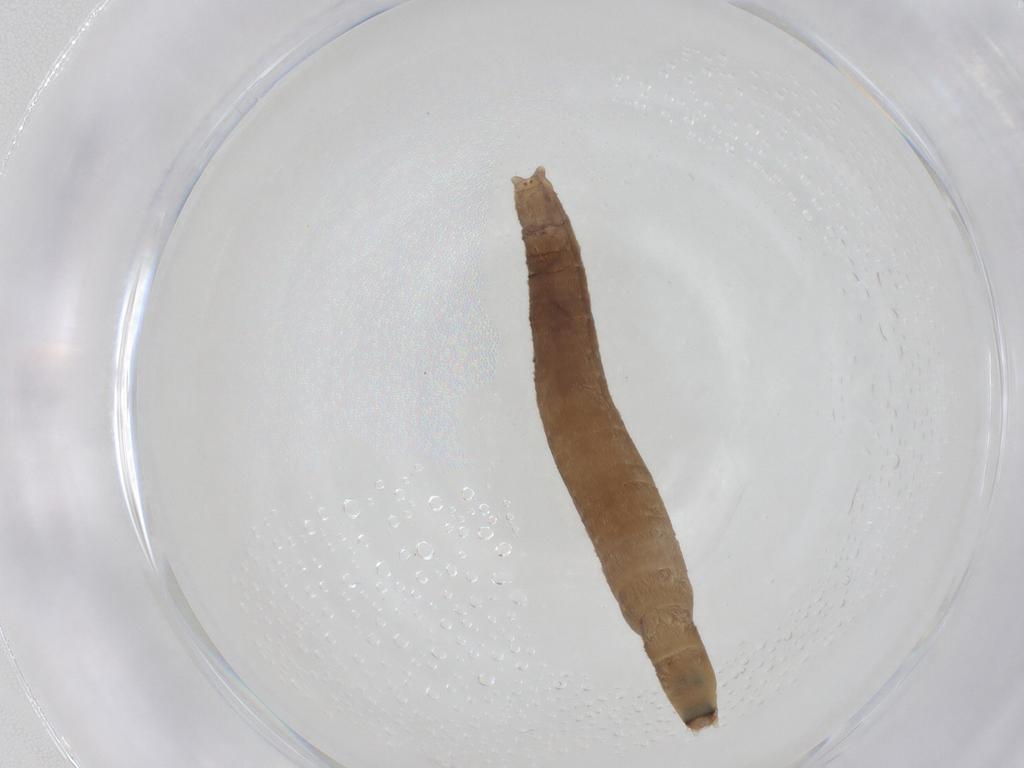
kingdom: Animalia
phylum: Arthropoda
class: Insecta
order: Diptera
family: Pediciidae
